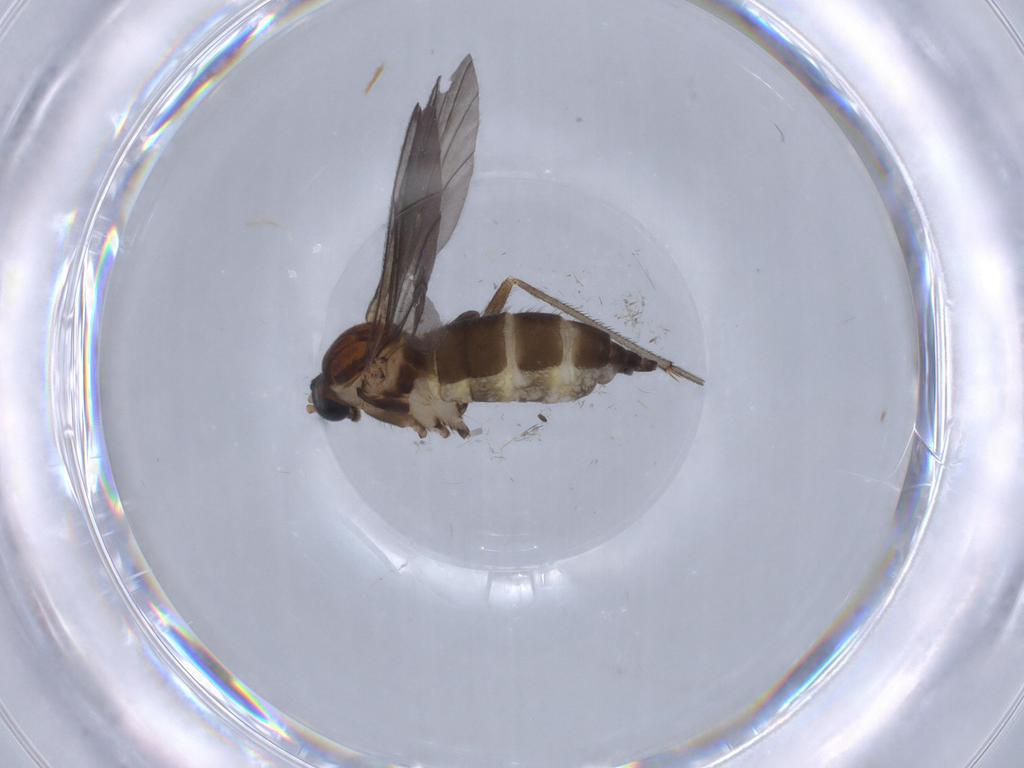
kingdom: Animalia
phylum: Arthropoda
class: Insecta
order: Diptera
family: Sciaridae
